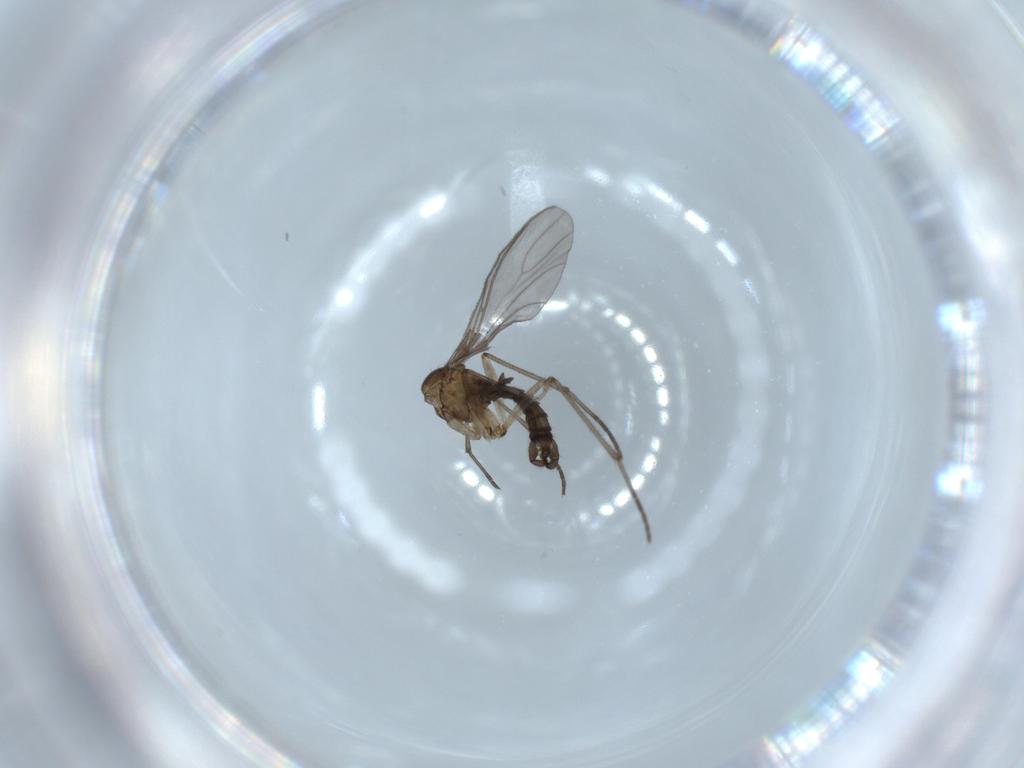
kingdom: Animalia
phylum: Arthropoda
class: Insecta
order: Diptera
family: Sciaridae
